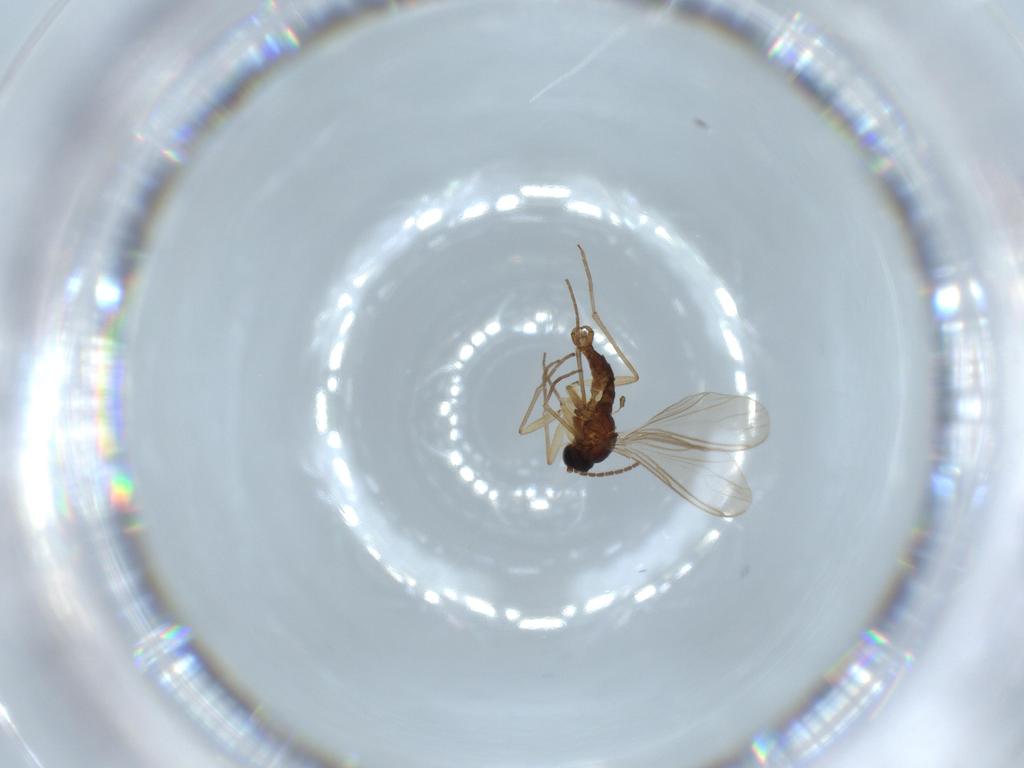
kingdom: Animalia
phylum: Arthropoda
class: Insecta
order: Diptera
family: Sciaridae
